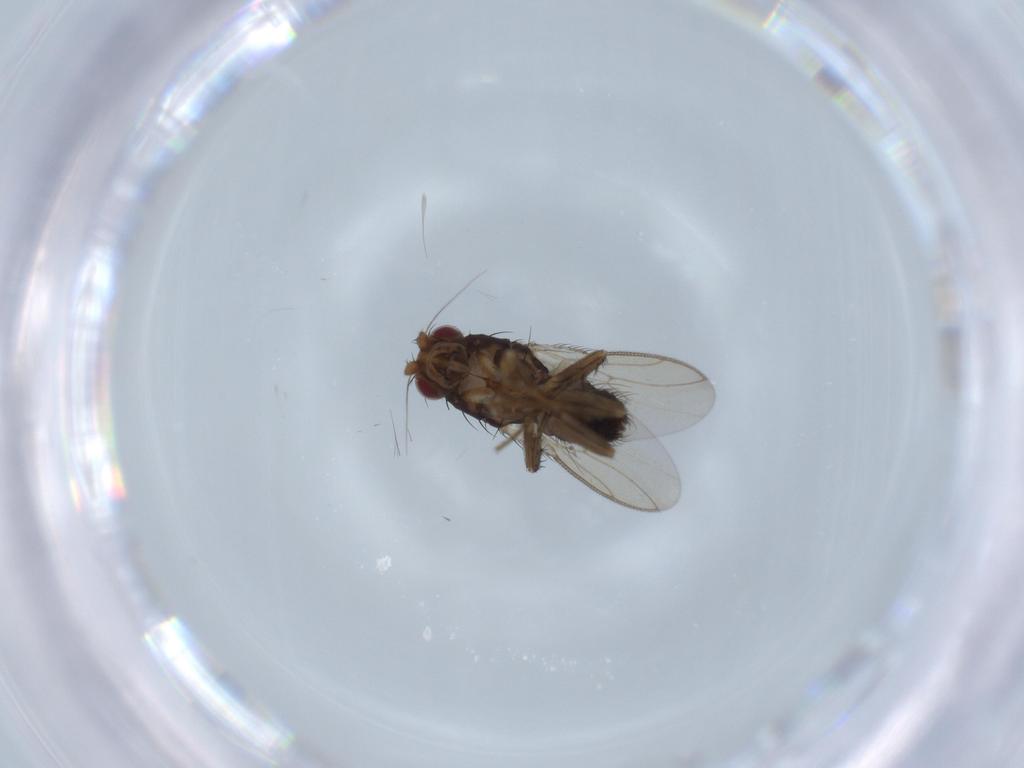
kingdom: Animalia
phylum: Arthropoda
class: Insecta
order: Diptera
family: Sphaeroceridae
